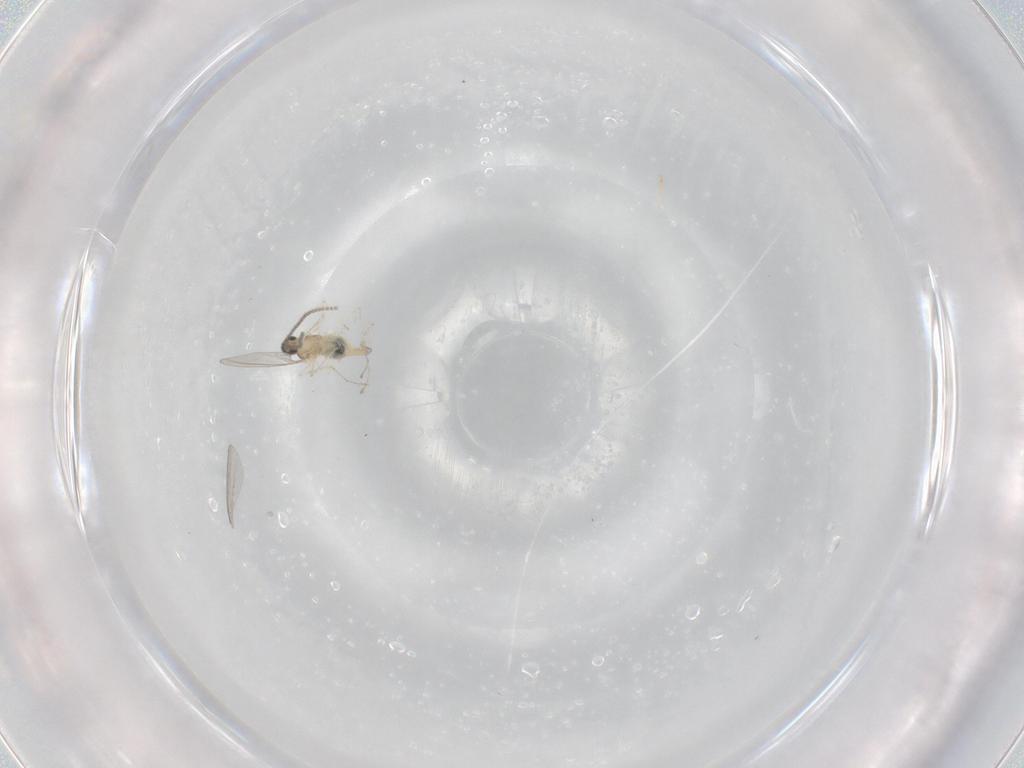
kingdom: Animalia
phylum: Arthropoda
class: Insecta
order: Diptera
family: Cecidomyiidae
